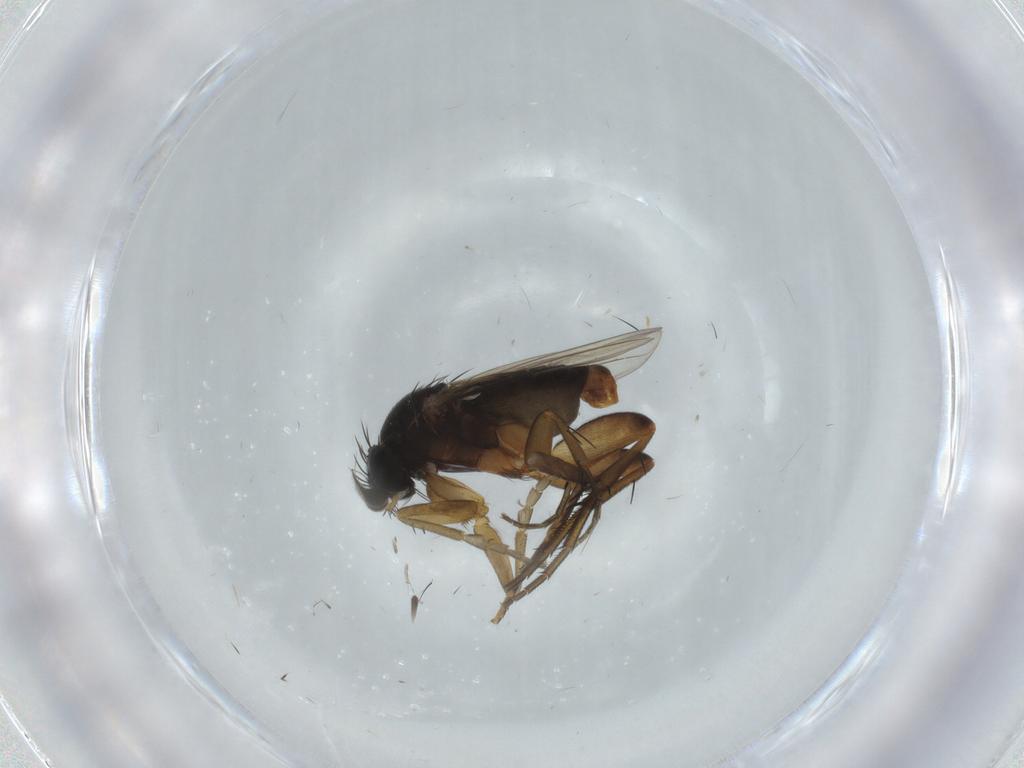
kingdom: Animalia
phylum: Arthropoda
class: Insecta
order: Diptera
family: Phoridae
